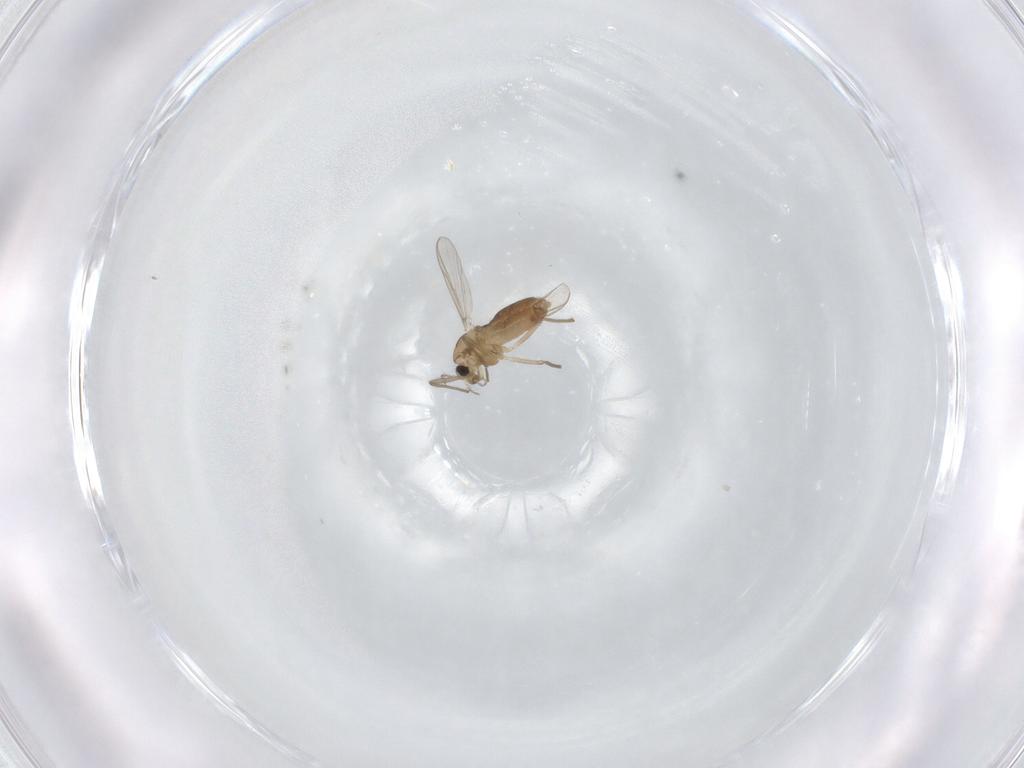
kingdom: Animalia
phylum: Arthropoda
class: Insecta
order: Diptera
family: Chironomidae
